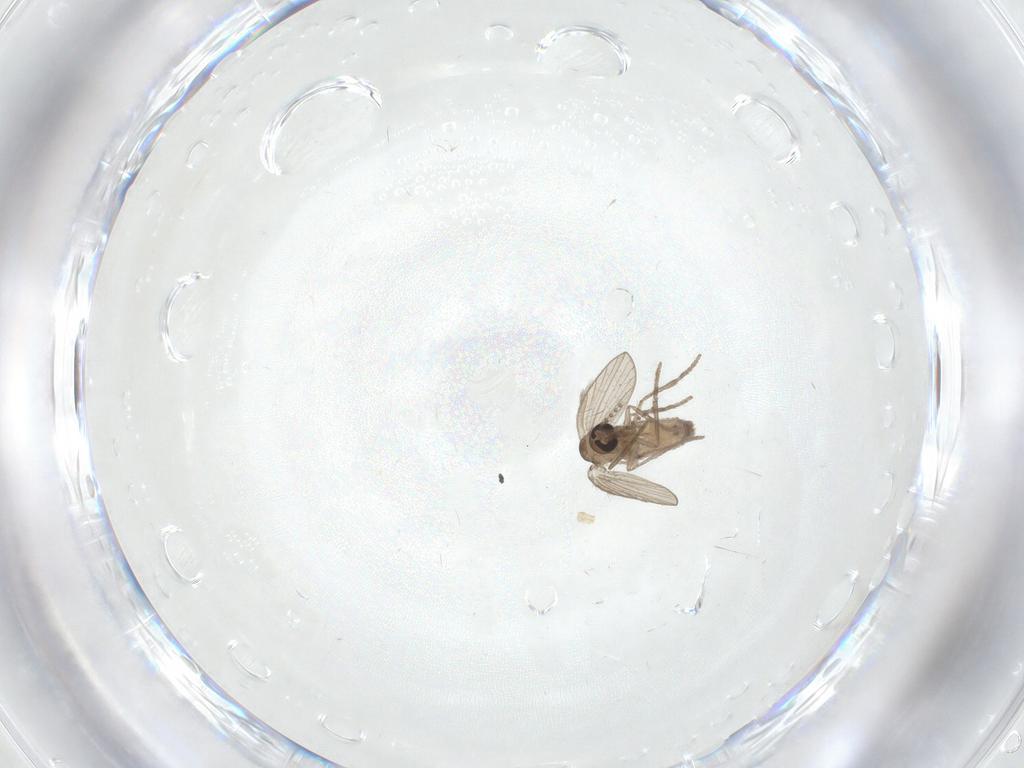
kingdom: Animalia
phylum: Arthropoda
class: Insecta
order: Diptera
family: Psychodidae
